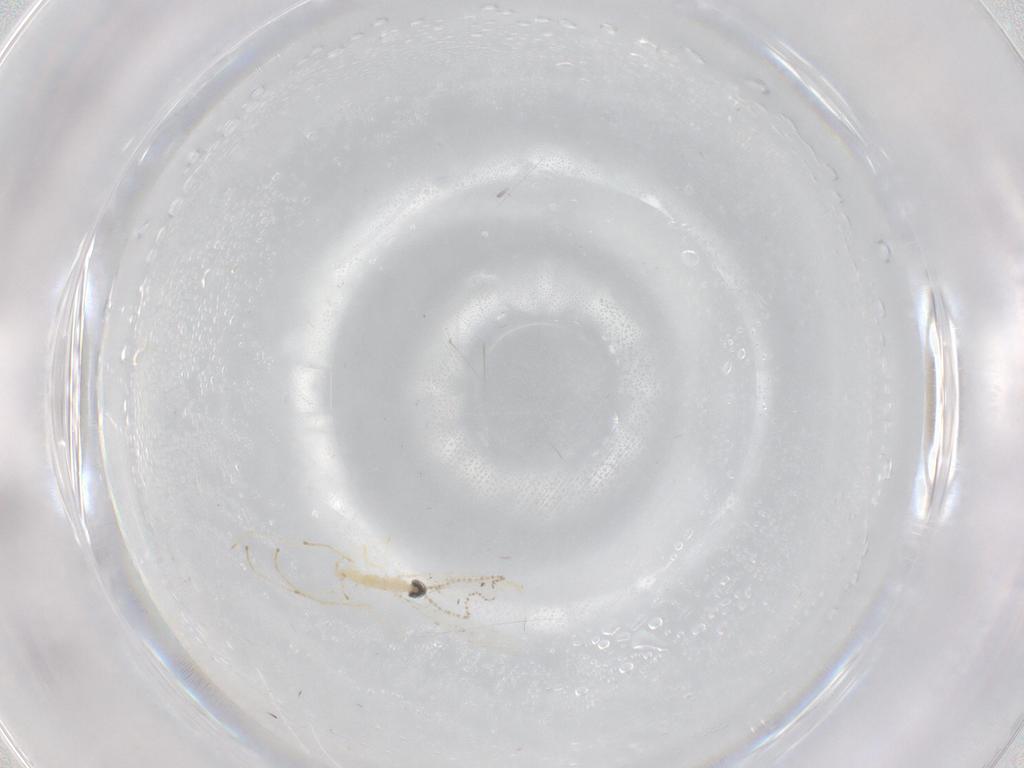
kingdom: Animalia
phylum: Arthropoda
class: Insecta
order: Diptera
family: Cecidomyiidae
